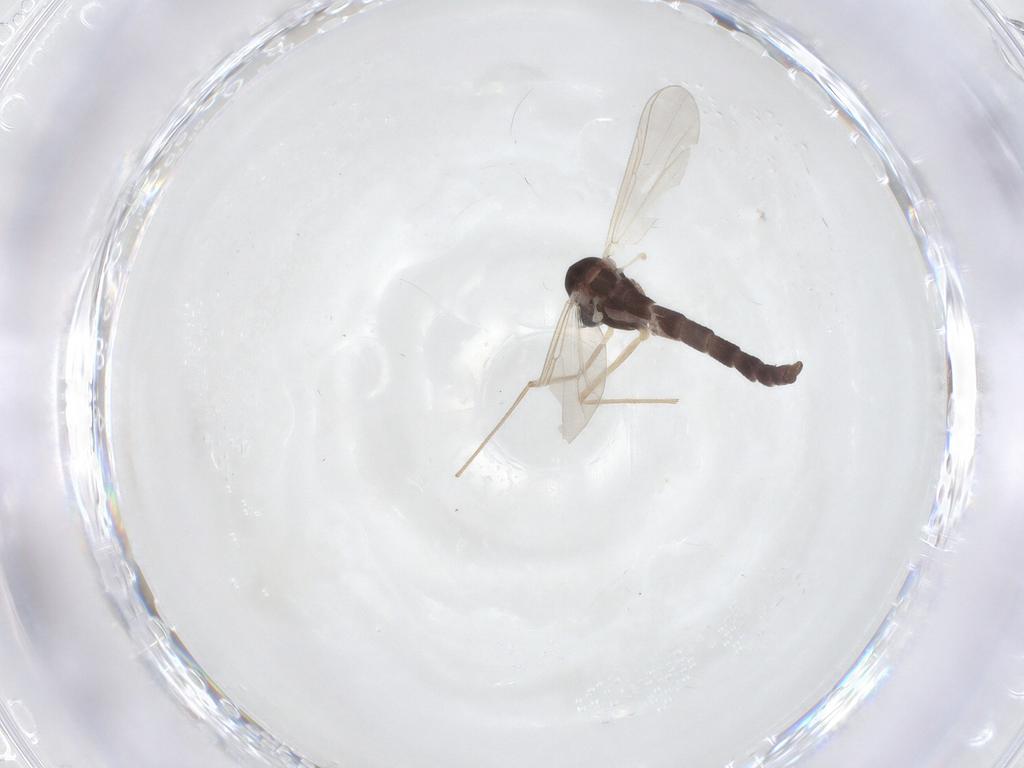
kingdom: Animalia
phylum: Arthropoda
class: Insecta
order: Diptera
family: Chironomidae
